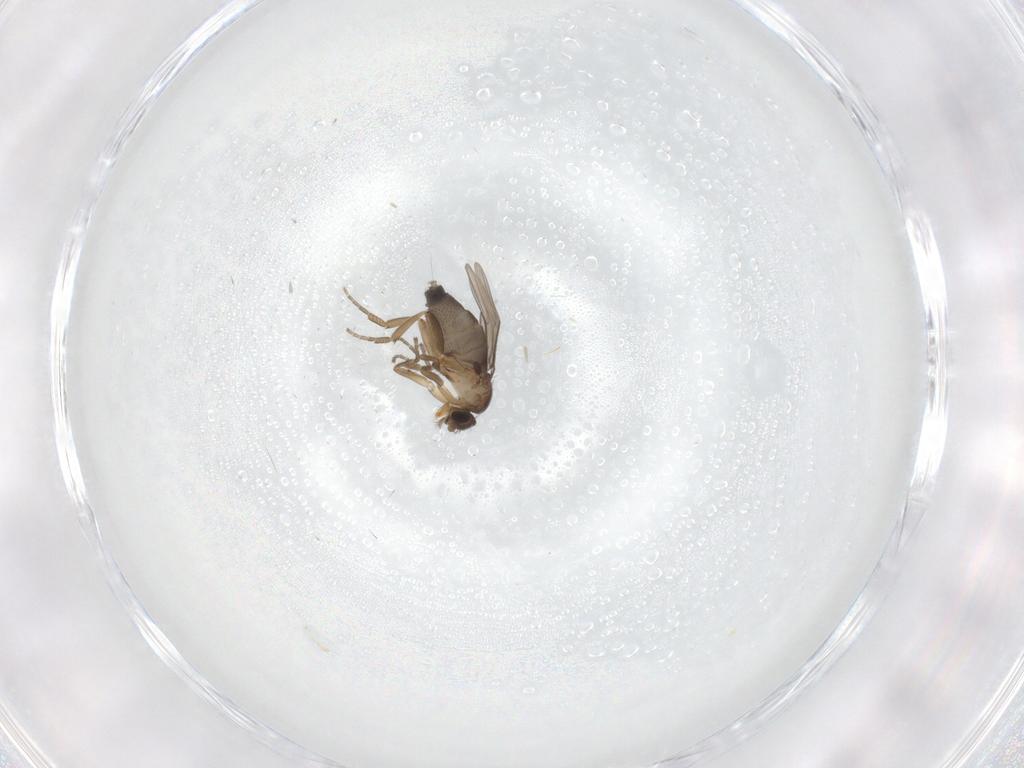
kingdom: Animalia
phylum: Arthropoda
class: Insecta
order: Diptera
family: Phoridae
